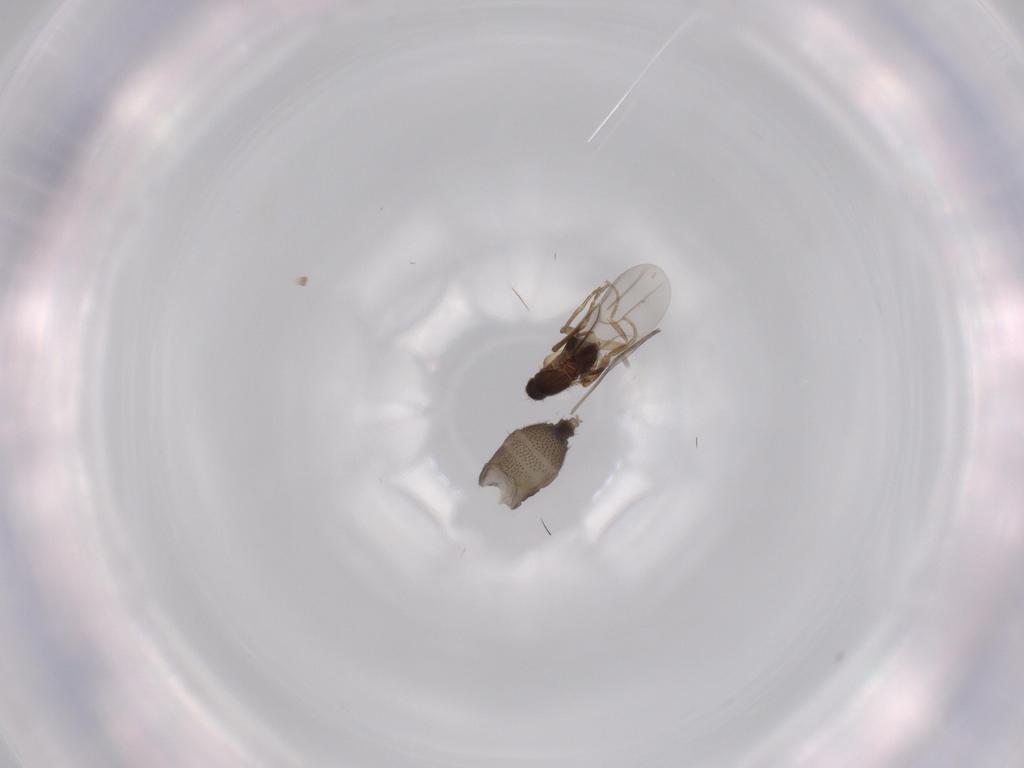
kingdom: Animalia
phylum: Arthropoda
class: Insecta
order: Diptera
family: Phoridae
